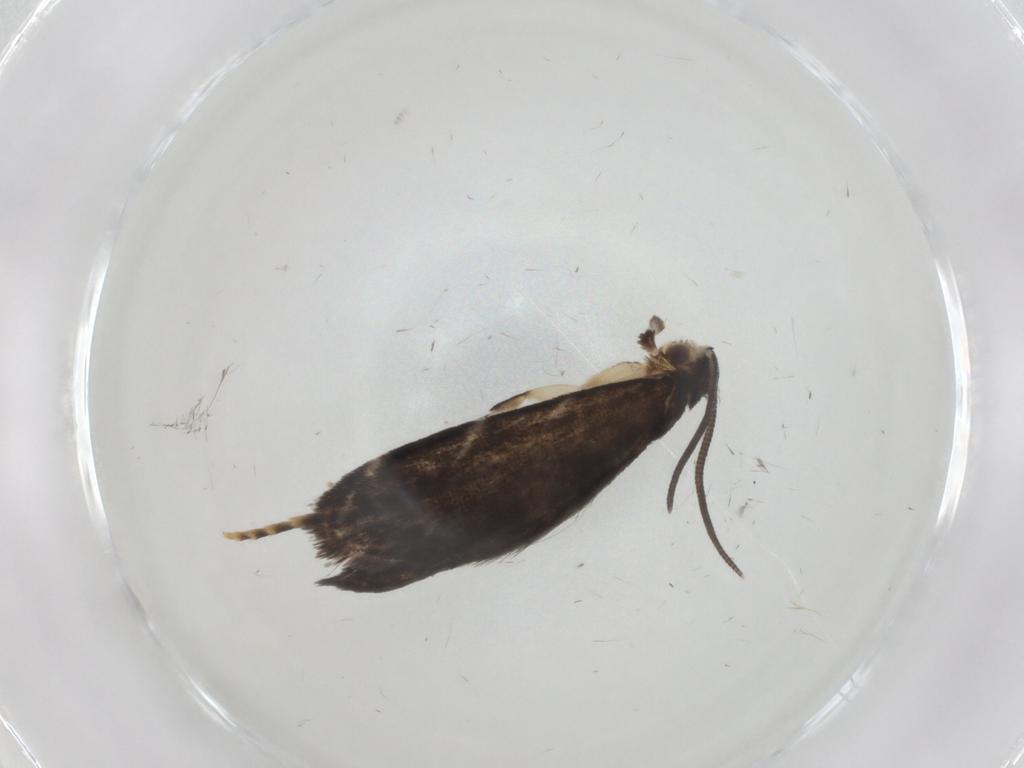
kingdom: Animalia
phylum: Arthropoda
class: Insecta
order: Lepidoptera
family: Dryadaulidae
